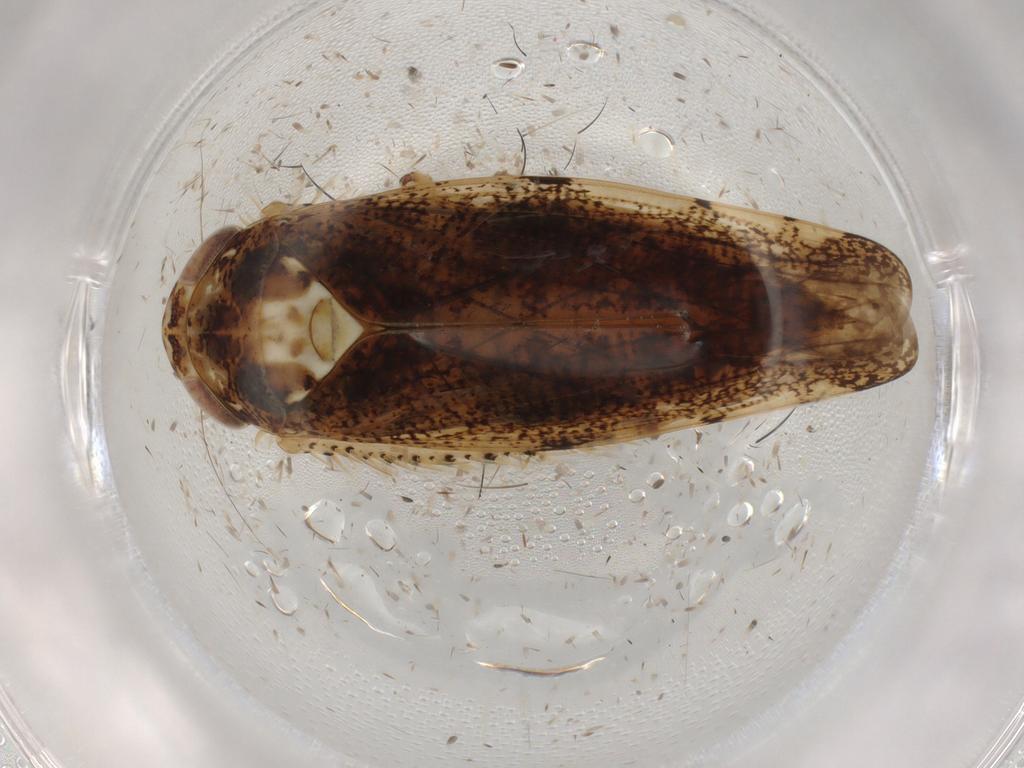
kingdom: Animalia
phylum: Arthropoda
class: Insecta
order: Hemiptera
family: Cicadellidae
